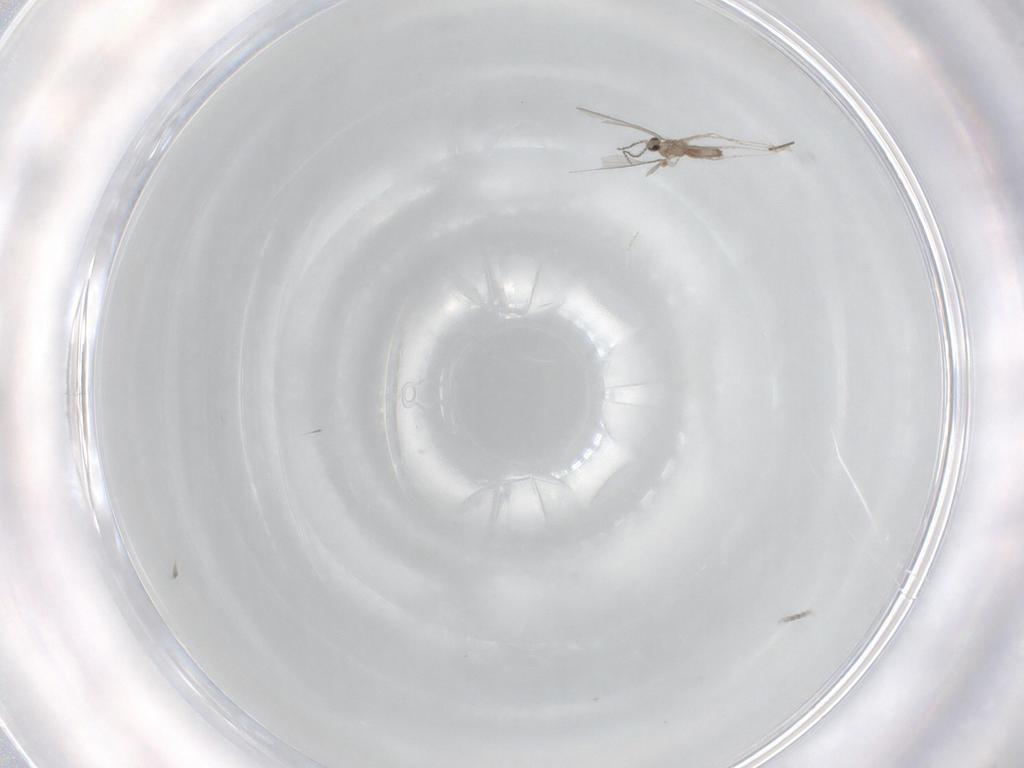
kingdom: Animalia
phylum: Arthropoda
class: Insecta
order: Diptera
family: Cecidomyiidae
